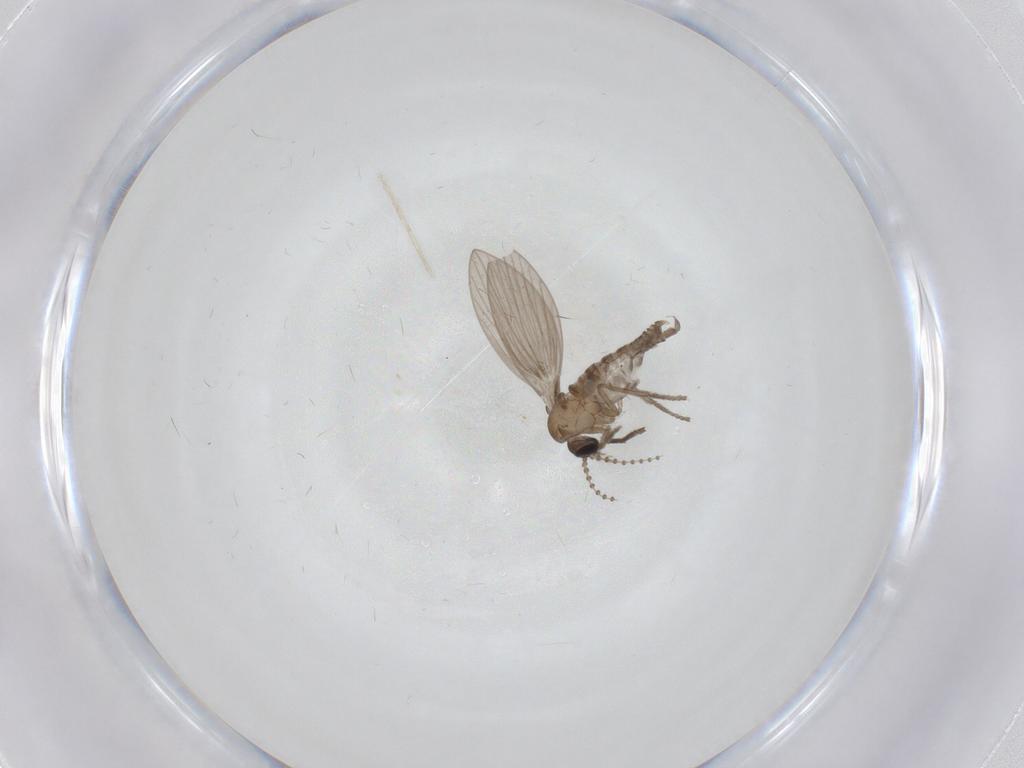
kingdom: Animalia
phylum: Arthropoda
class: Insecta
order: Diptera
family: Psychodidae
